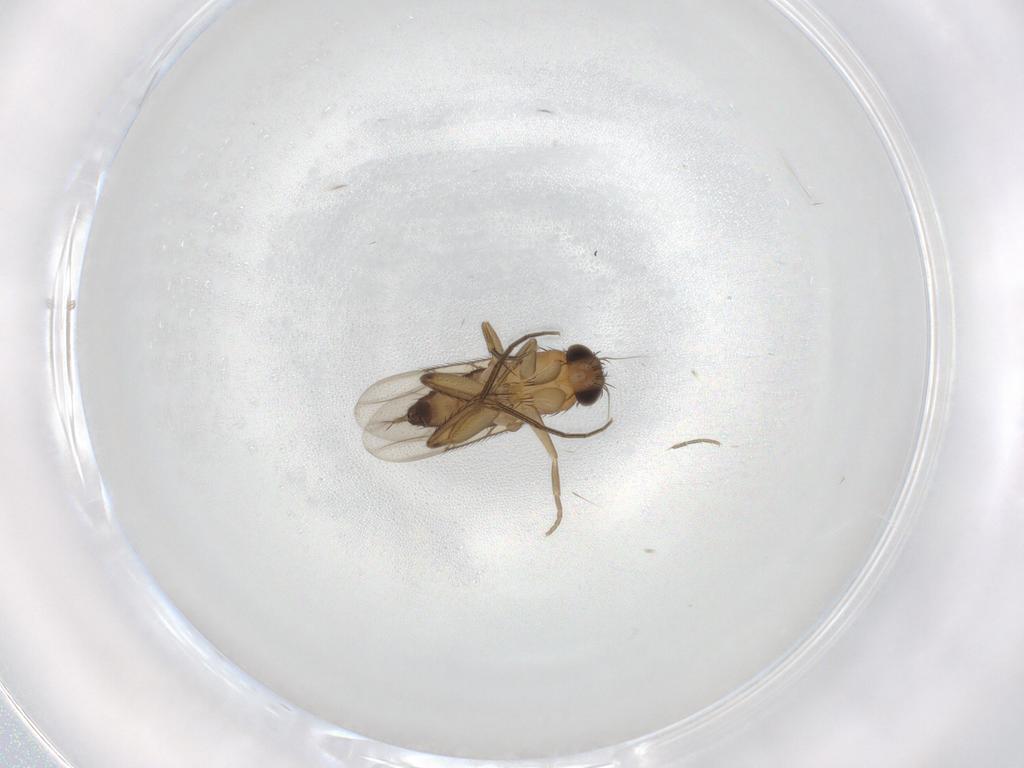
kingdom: Animalia
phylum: Arthropoda
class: Insecta
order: Diptera
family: Phoridae
